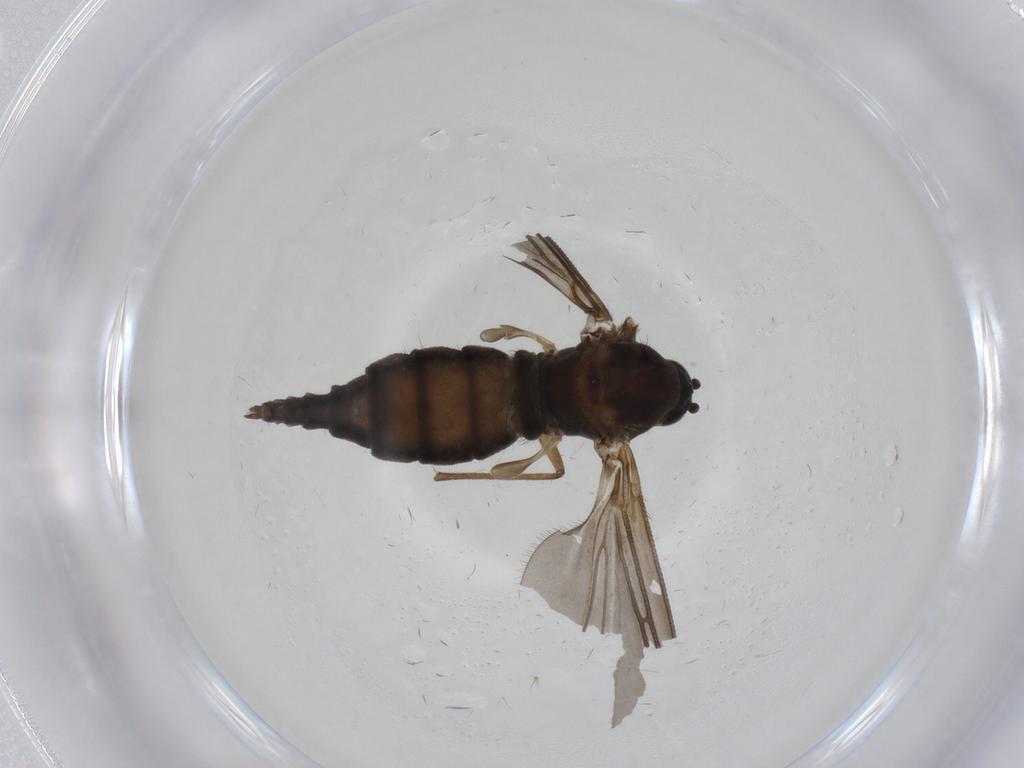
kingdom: Animalia
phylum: Arthropoda
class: Insecta
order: Diptera
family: Sciaridae
